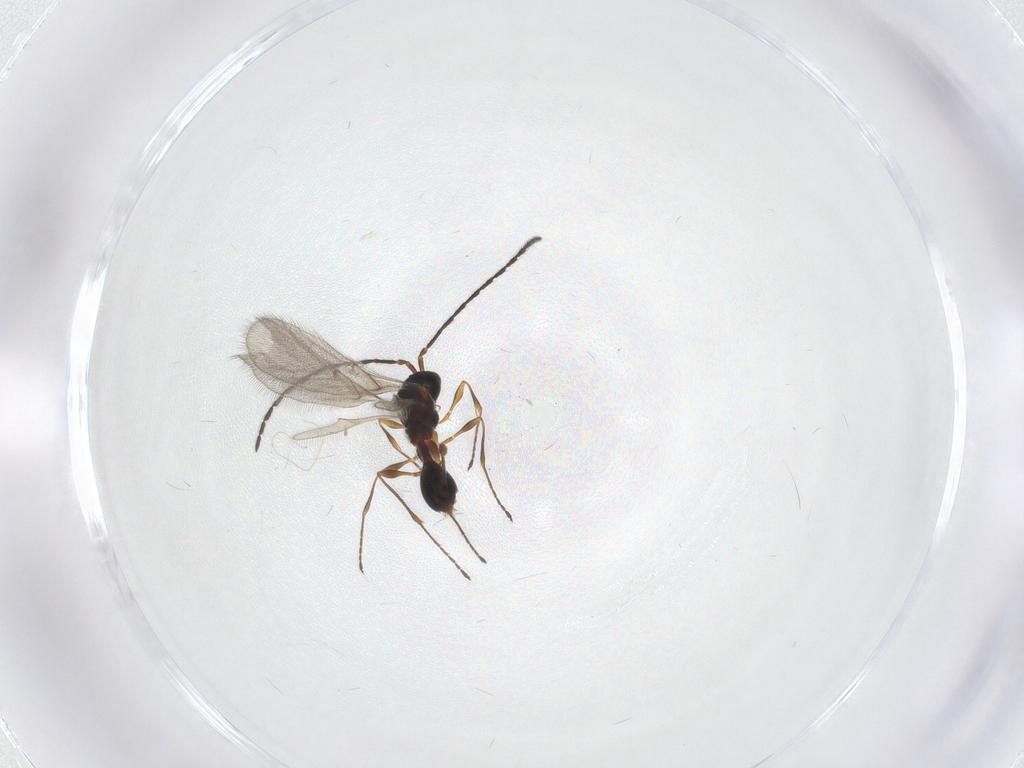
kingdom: Animalia
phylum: Arthropoda
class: Insecta
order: Hymenoptera
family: Diapriidae
